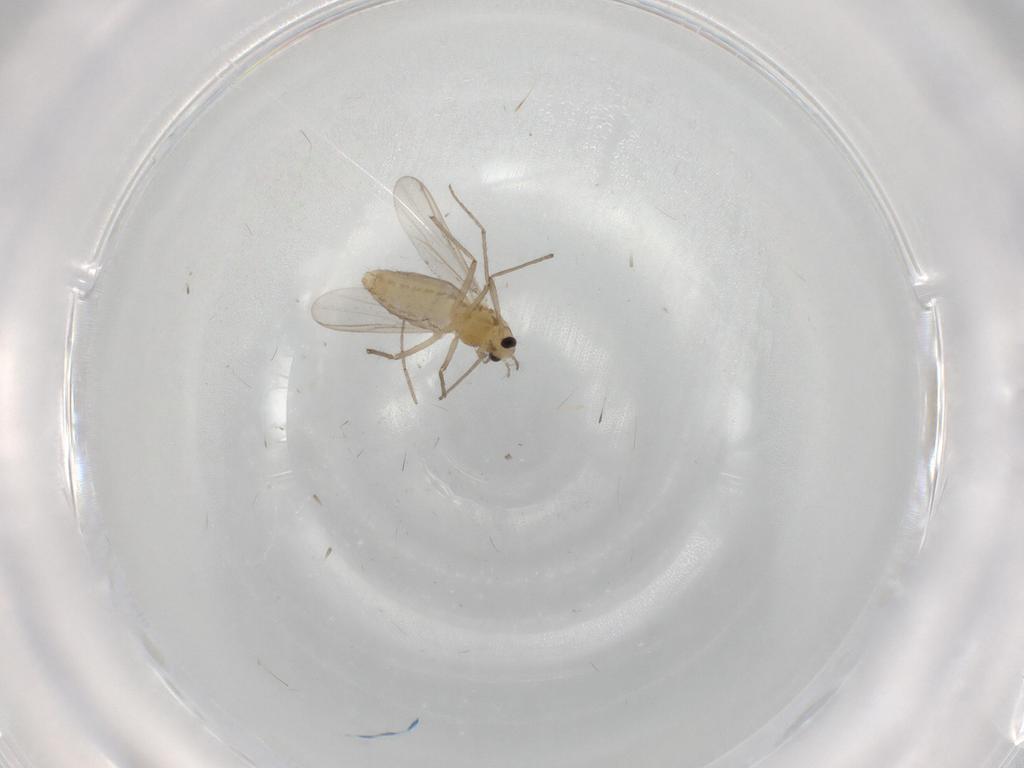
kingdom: Animalia
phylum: Arthropoda
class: Insecta
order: Diptera
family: Chironomidae
